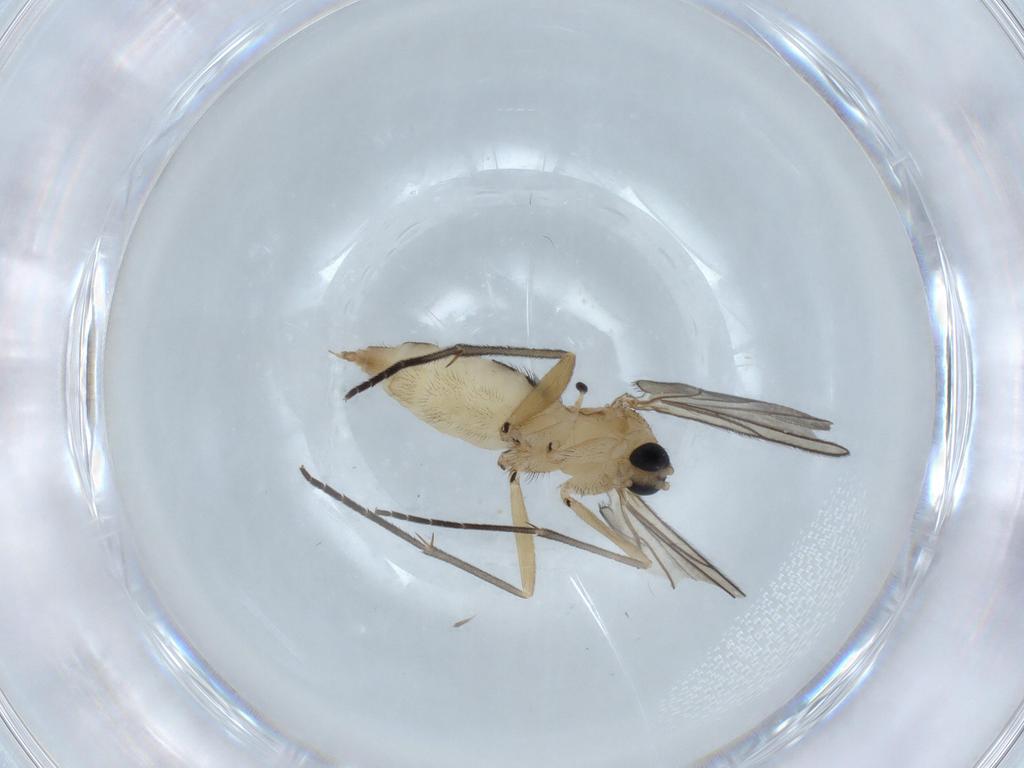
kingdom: Animalia
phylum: Arthropoda
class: Insecta
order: Diptera
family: Sciaridae
